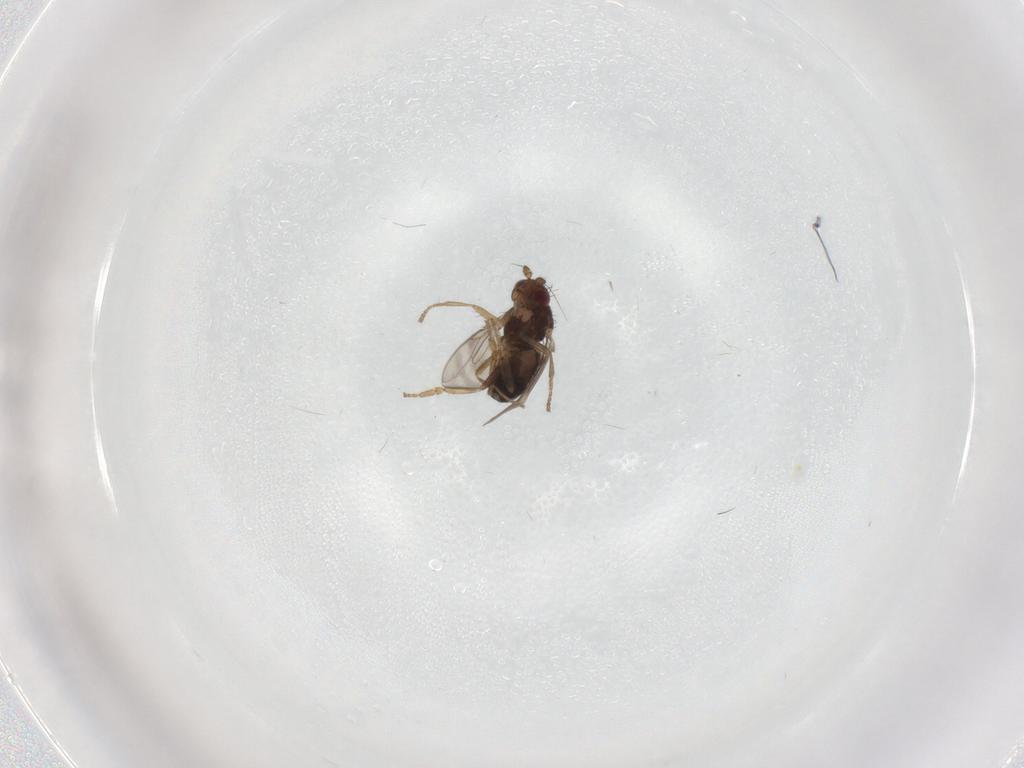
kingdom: Animalia
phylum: Arthropoda
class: Insecta
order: Diptera
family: Sphaeroceridae
